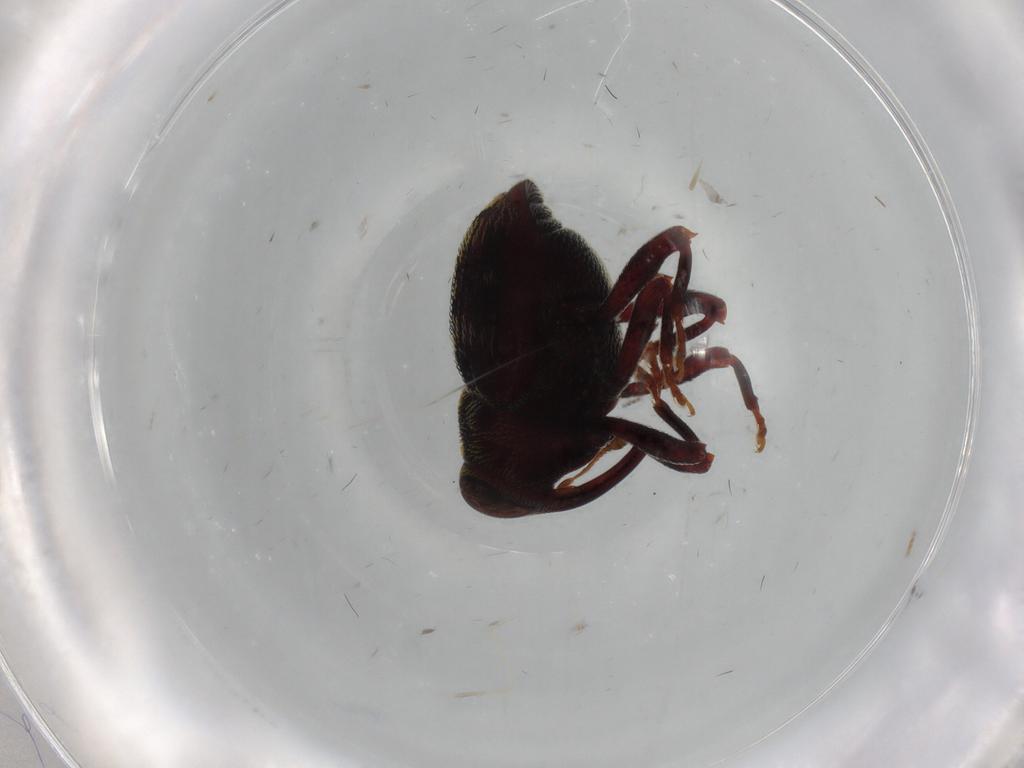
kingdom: Animalia
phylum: Arthropoda
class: Insecta
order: Coleoptera
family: Curculionidae
